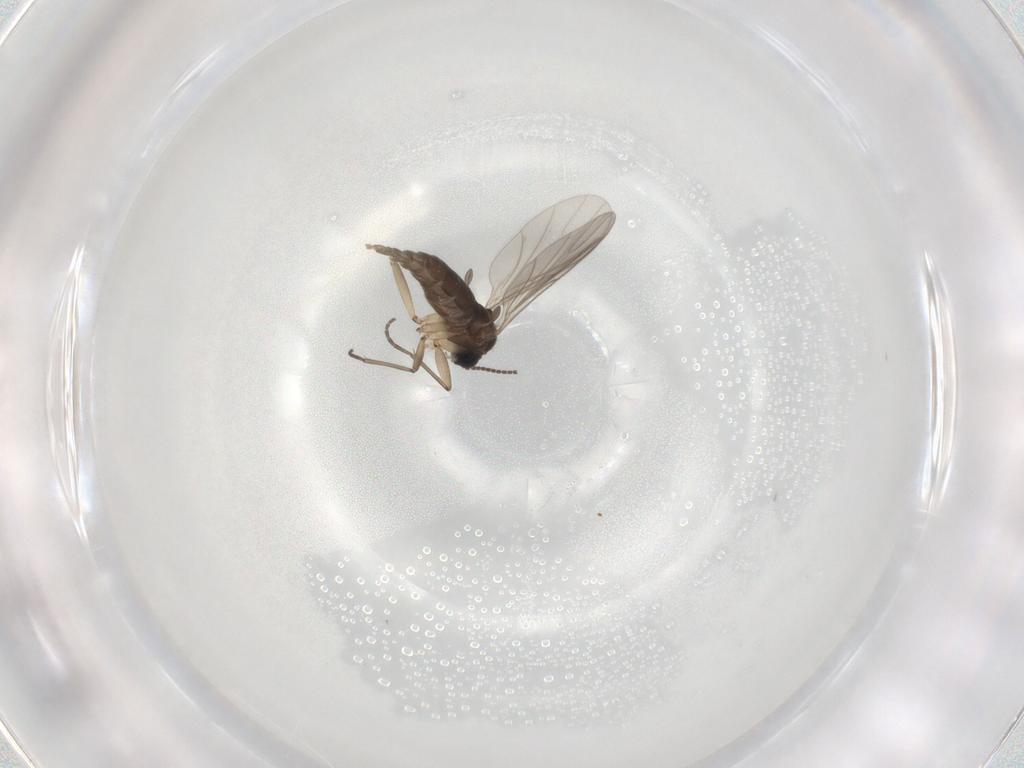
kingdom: Animalia
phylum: Arthropoda
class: Insecta
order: Diptera
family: Sciaridae
